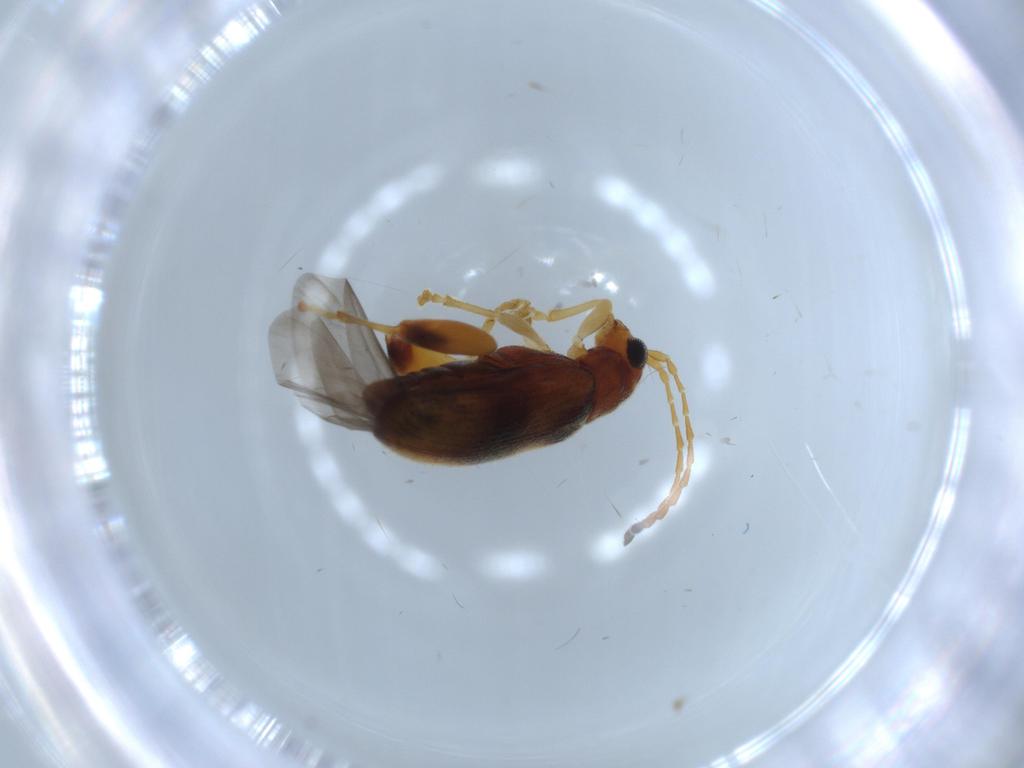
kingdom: Animalia
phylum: Arthropoda
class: Insecta
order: Coleoptera
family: Chrysomelidae
